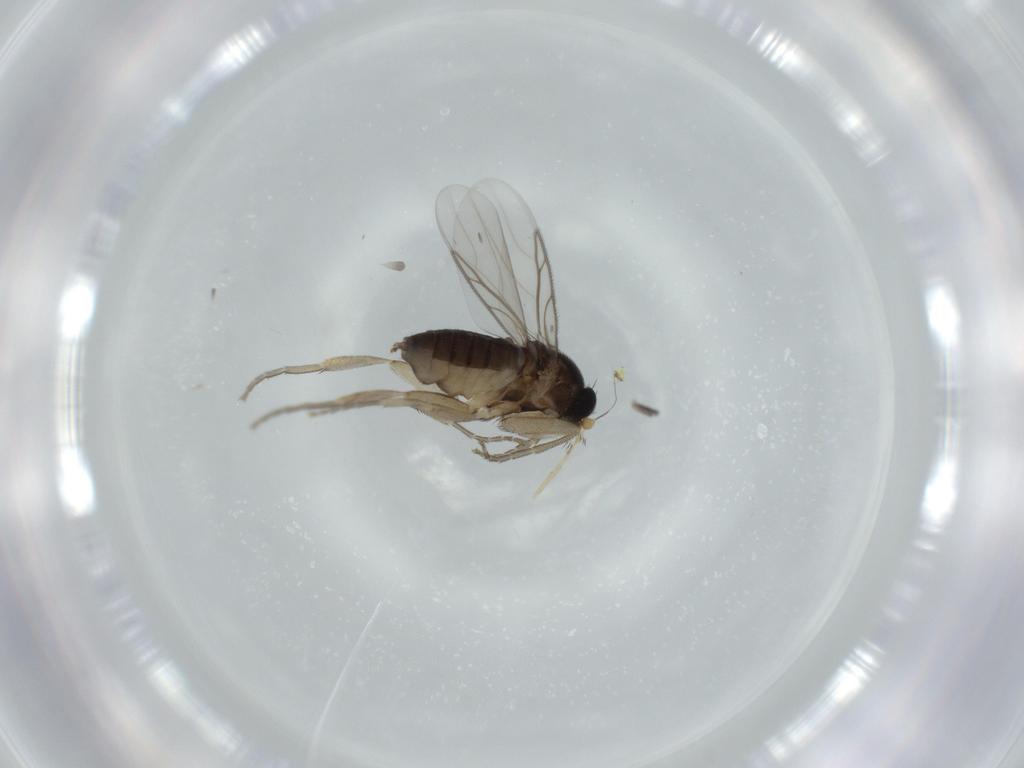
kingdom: Animalia
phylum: Arthropoda
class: Insecta
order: Diptera
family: Phoridae
